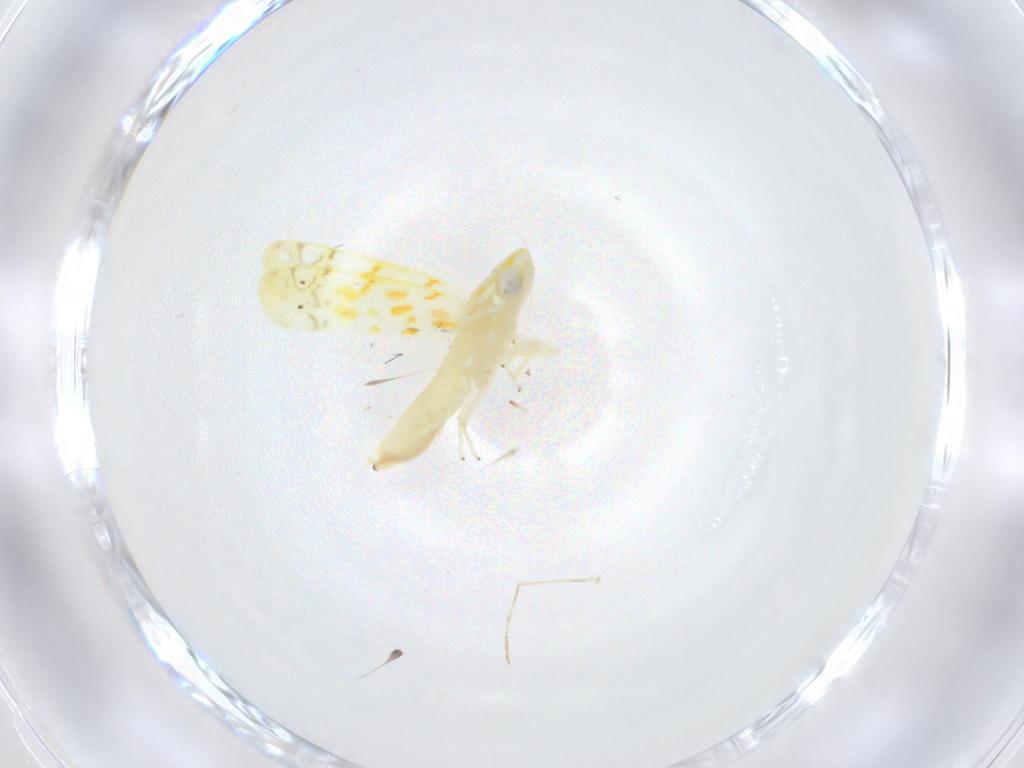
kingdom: Animalia
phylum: Arthropoda
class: Insecta
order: Hemiptera
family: Cicadellidae
